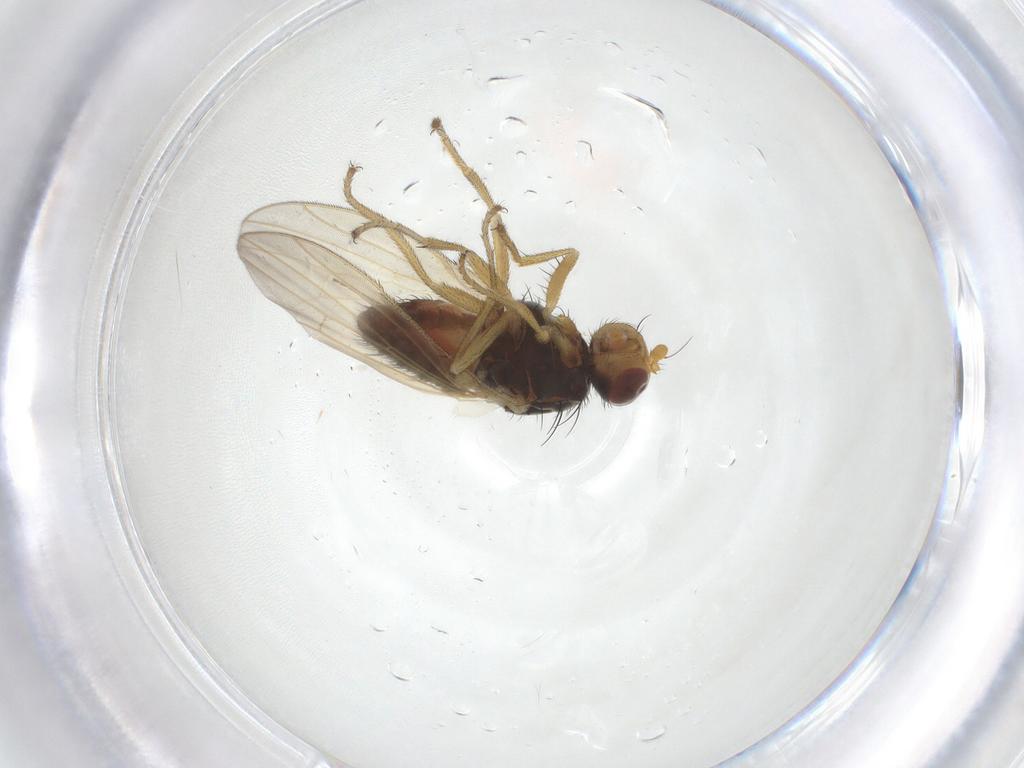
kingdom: Animalia
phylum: Arthropoda
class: Insecta
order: Diptera
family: Heleomyzidae
